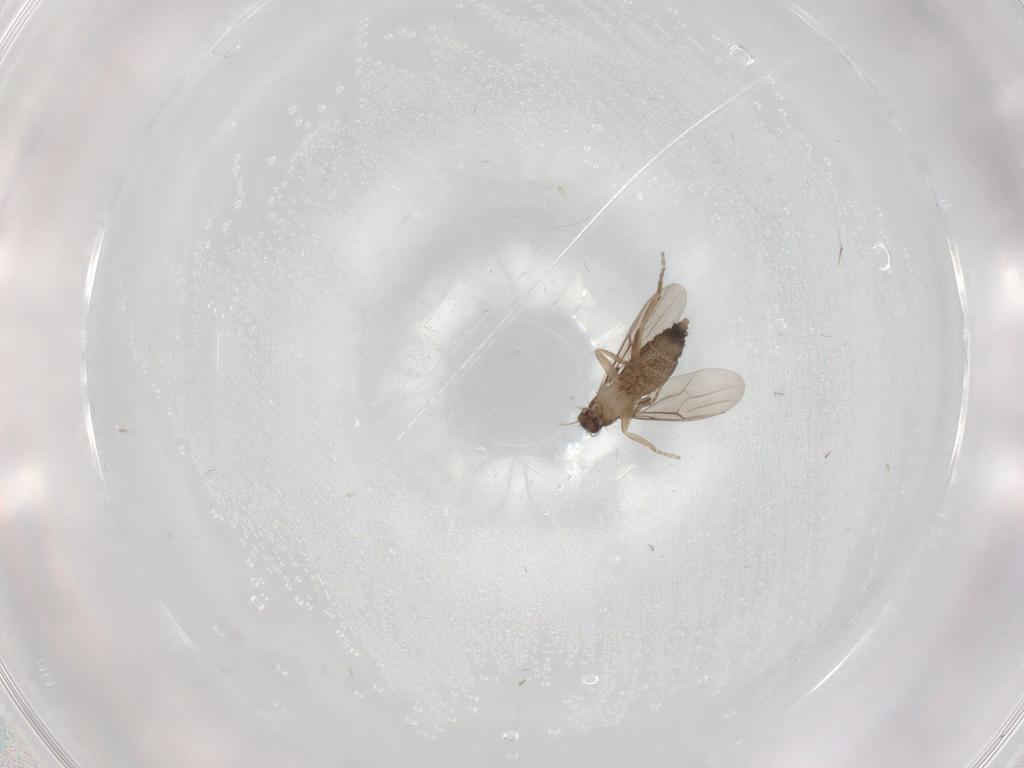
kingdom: Animalia
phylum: Arthropoda
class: Insecta
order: Diptera
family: Phoridae
